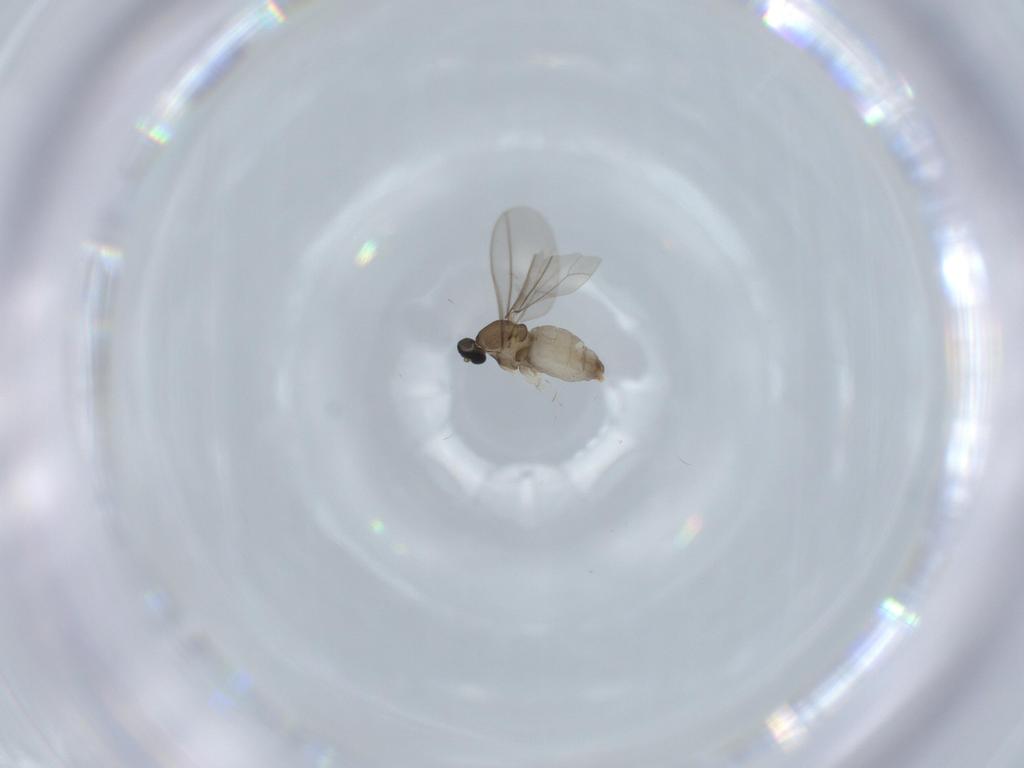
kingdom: Animalia
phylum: Arthropoda
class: Insecta
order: Diptera
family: Cecidomyiidae
